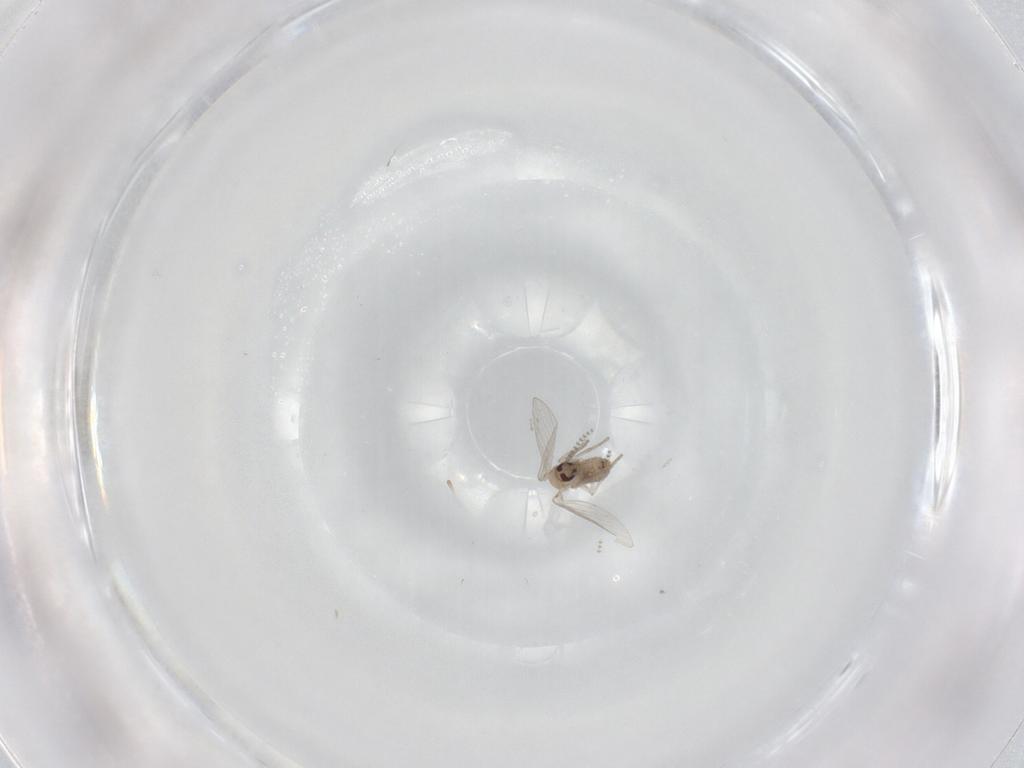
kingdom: Animalia
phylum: Arthropoda
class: Insecta
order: Diptera
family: Psychodidae
